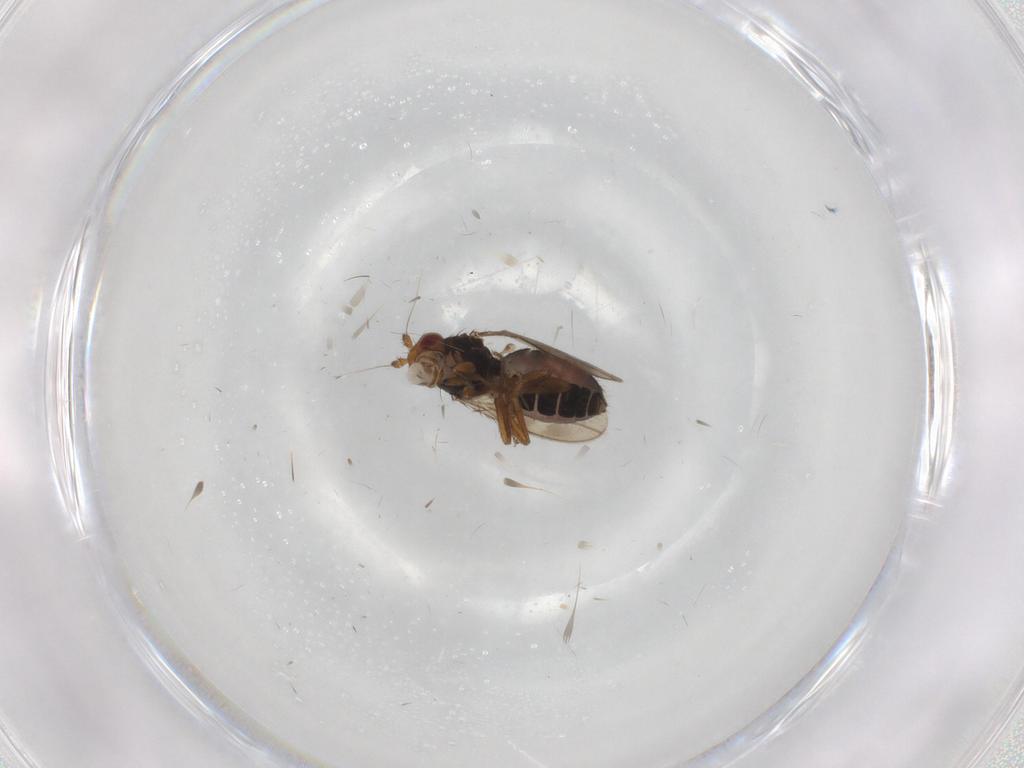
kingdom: Animalia
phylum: Arthropoda
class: Insecta
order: Diptera
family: Sphaeroceridae
